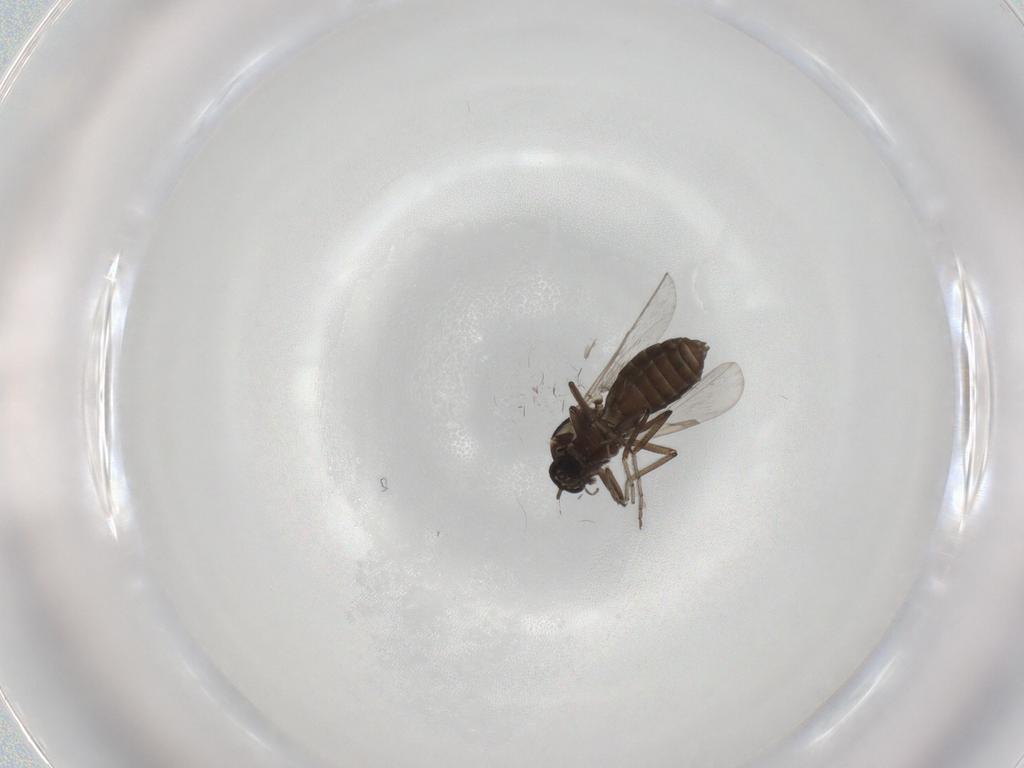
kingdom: Animalia
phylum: Arthropoda
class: Insecta
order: Diptera
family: Ceratopogonidae
